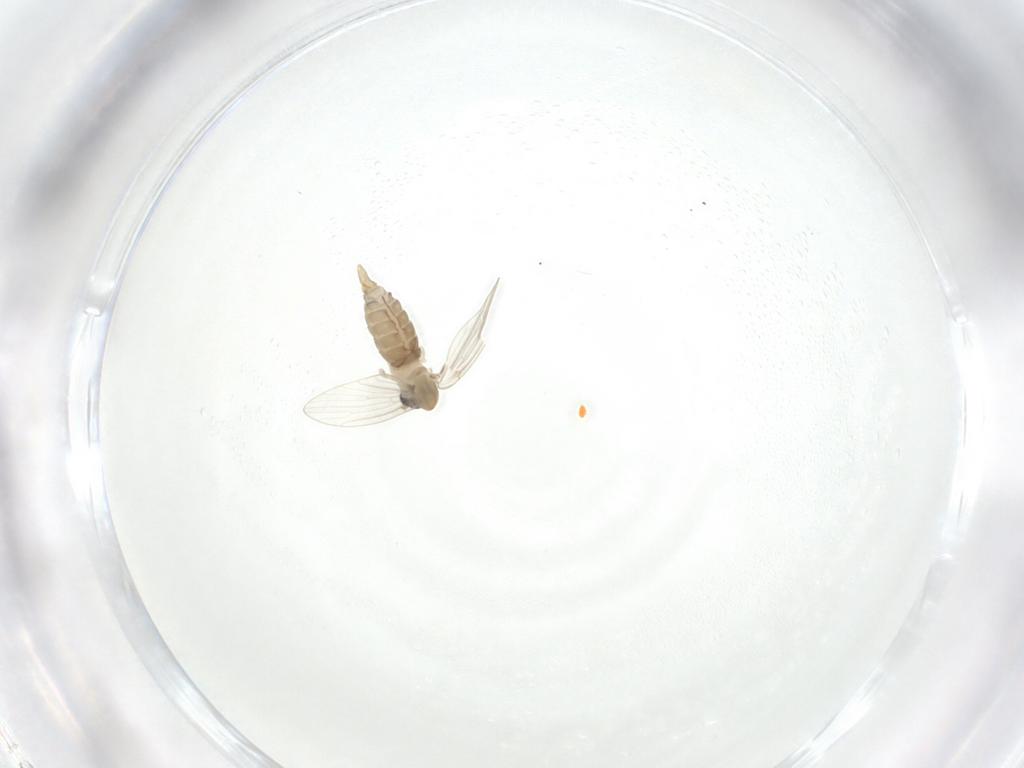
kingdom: Animalia
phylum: Arthropoda
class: Insecta
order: Diptera
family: Psychodidae
